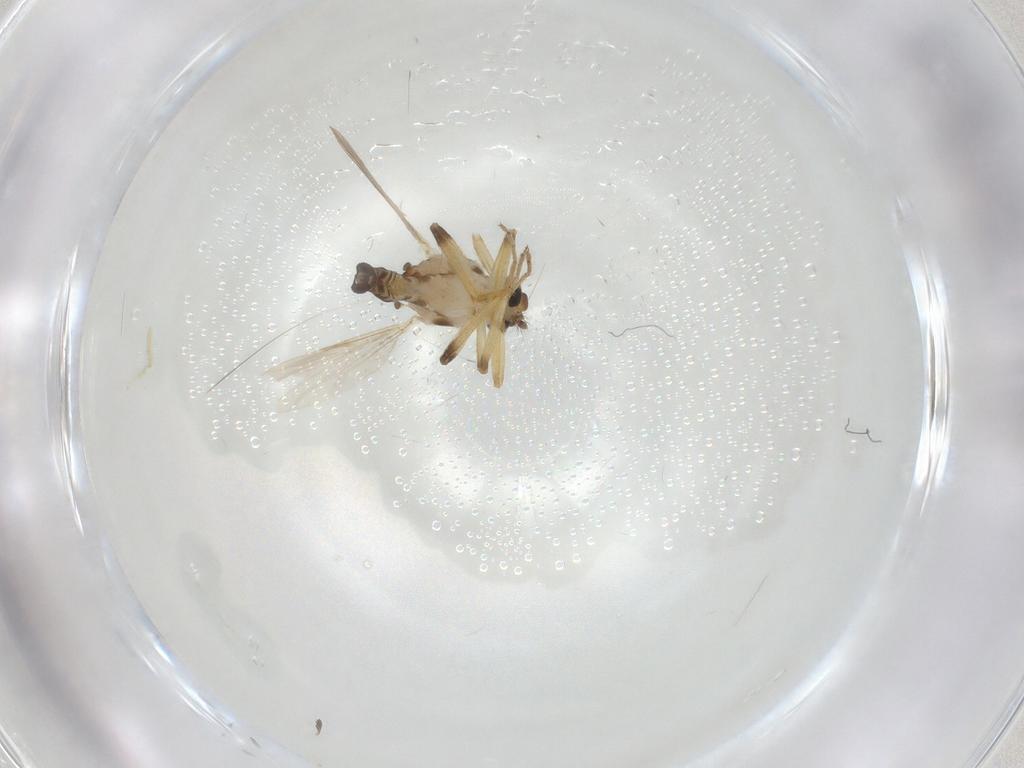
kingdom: Animalia
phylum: Arthropoda
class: Insecta
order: Diptera
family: Ceratopogonidae
